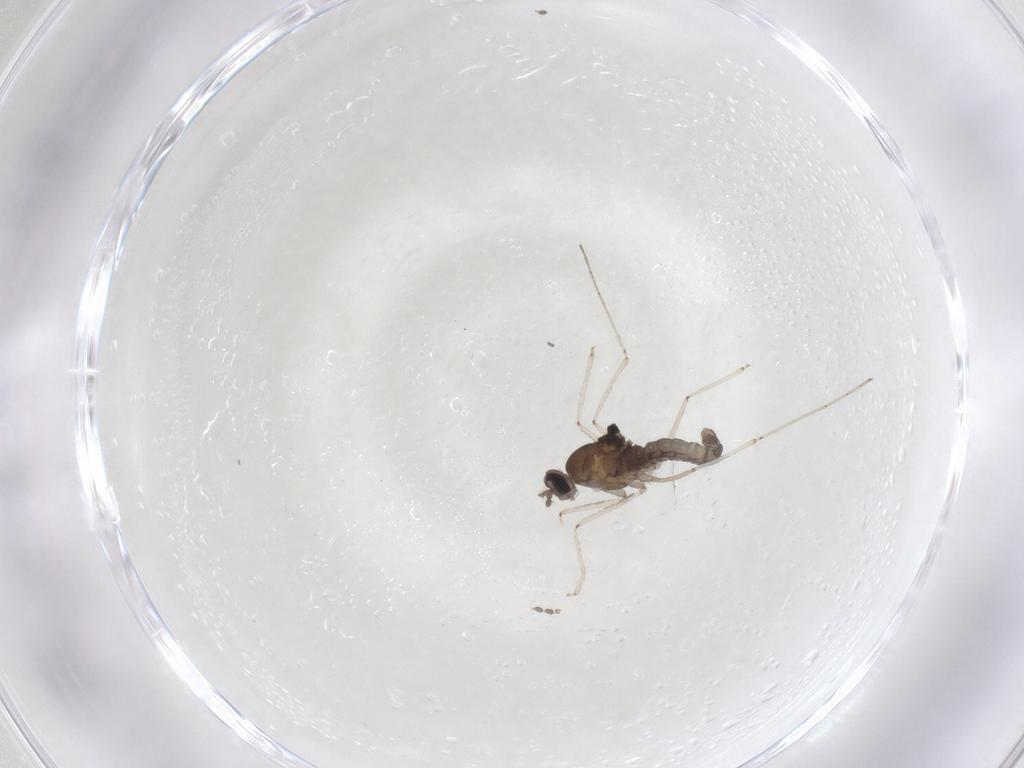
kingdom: Animalia
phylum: Arthropoda
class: Insecta
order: Diptera
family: Cecidomyiidae
